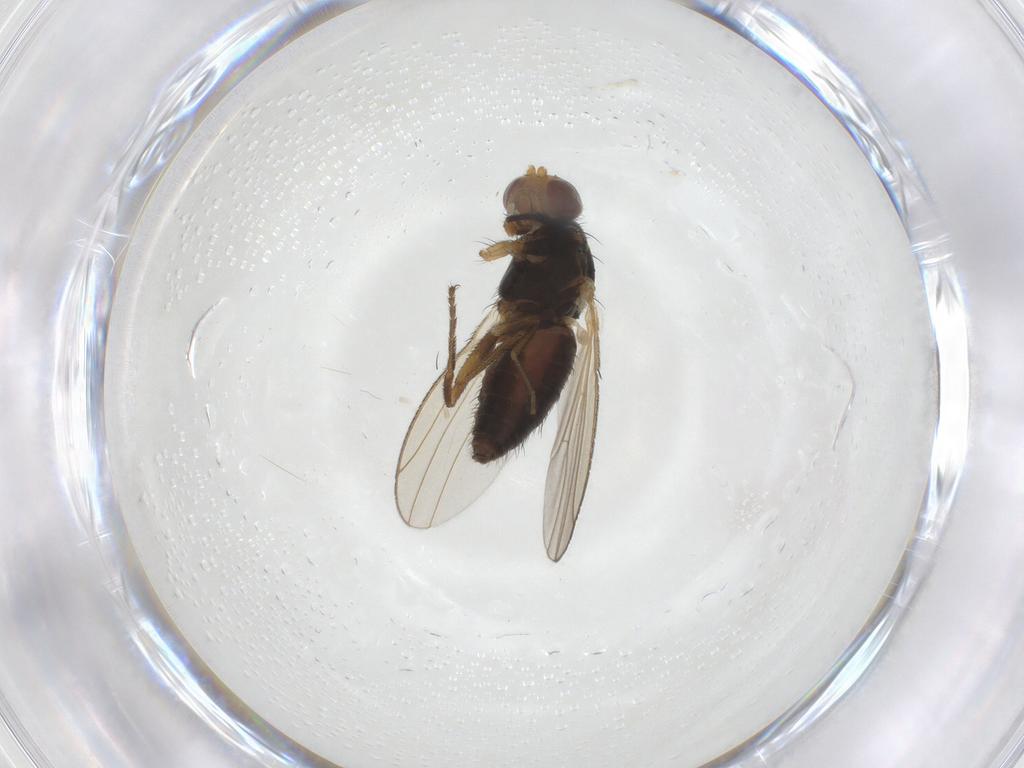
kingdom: Animalia
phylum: Arthropoda
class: Insecta
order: Diptera
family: Heleomyzidae
